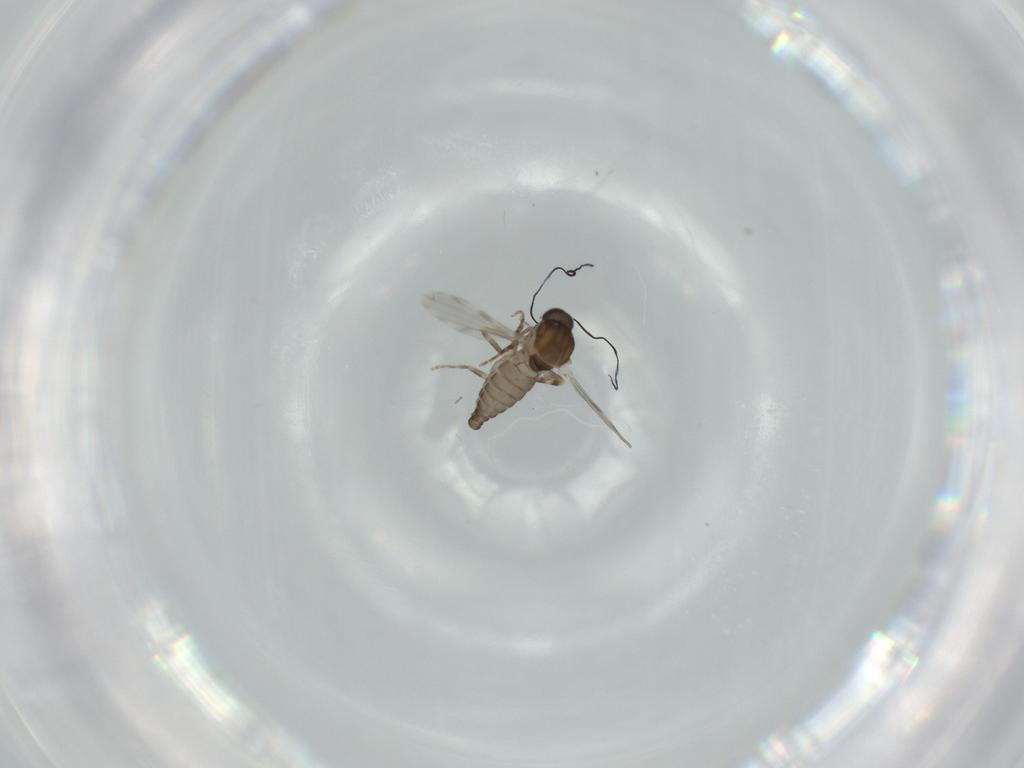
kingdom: Animalia
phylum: Arthropoda
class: Insecta
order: Diptera
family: Ceratopogonidae
